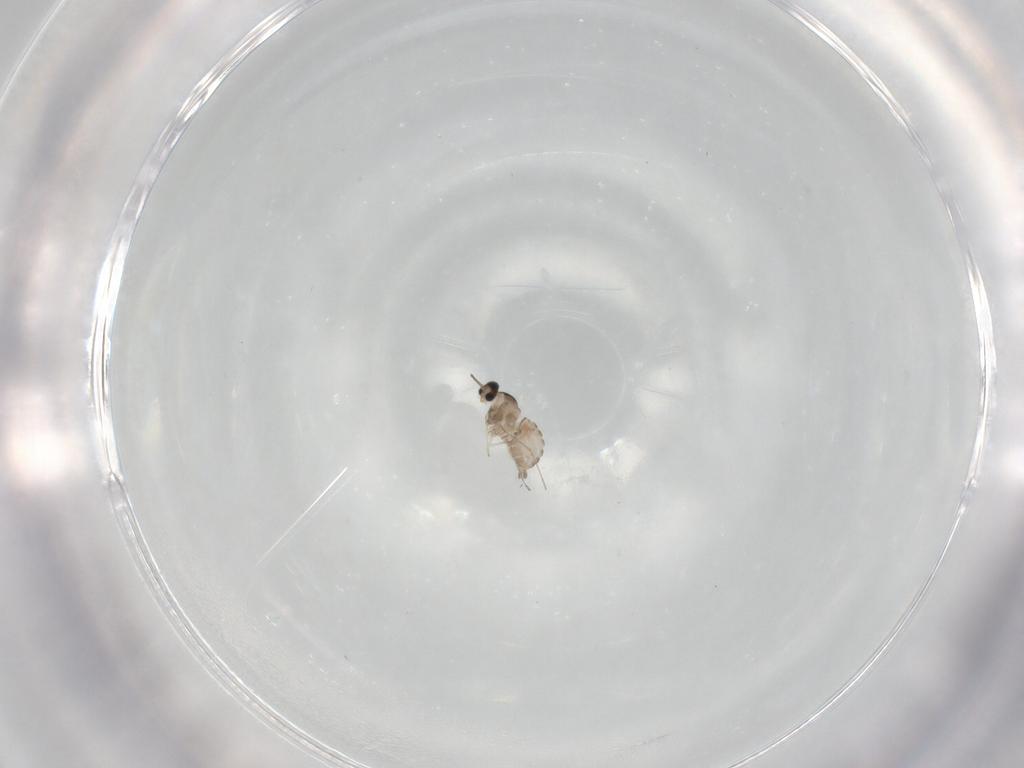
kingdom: Animalia
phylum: Arthropoda
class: Insecta
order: Diptera
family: Cecidomyiidae
